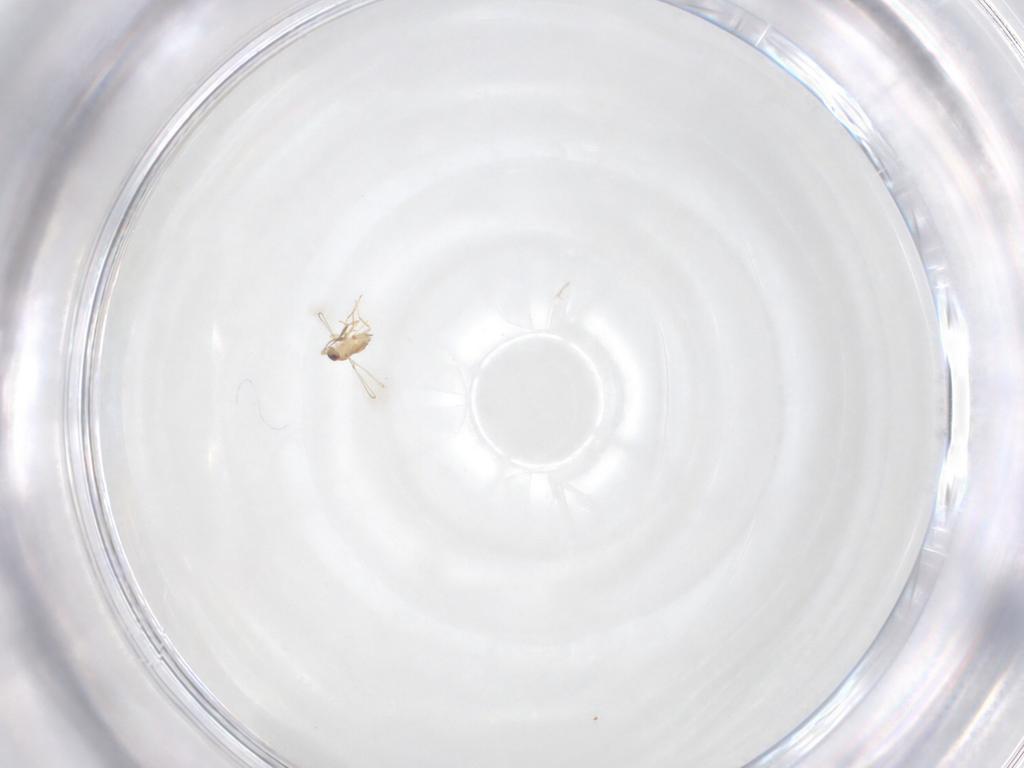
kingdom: Animalia
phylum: Arthropoda
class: Insecta
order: Hymenoptera
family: Mymaridae
